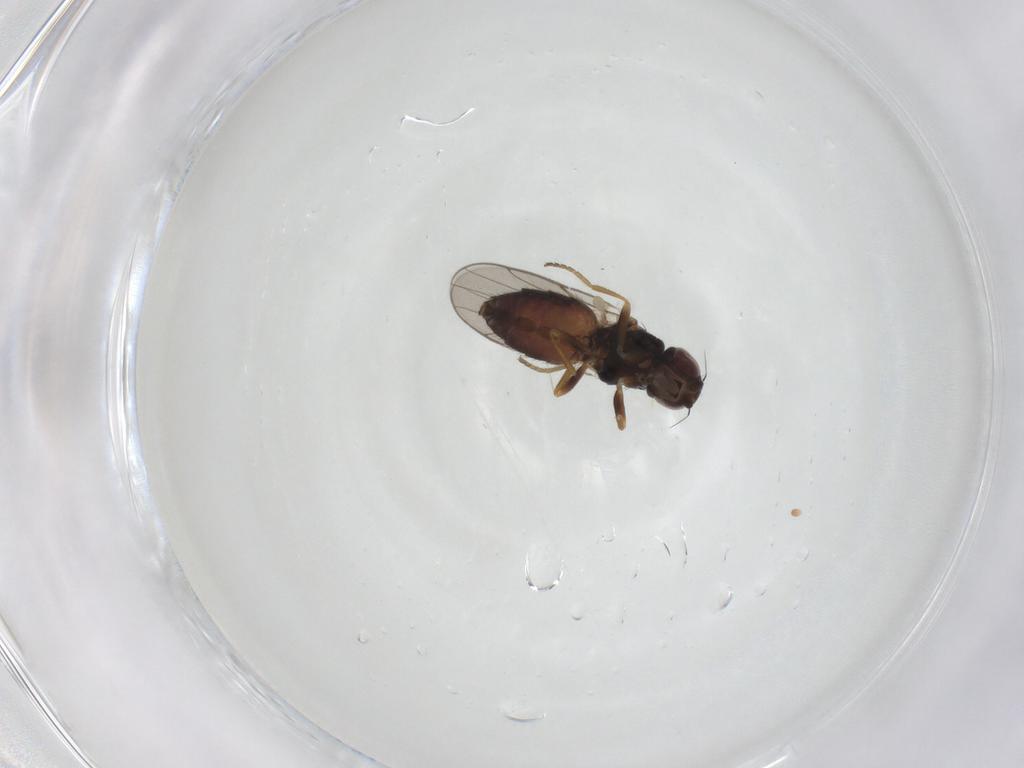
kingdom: Animalia
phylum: Arthropoda
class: Insecta
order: Diptera
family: Chloropidae
